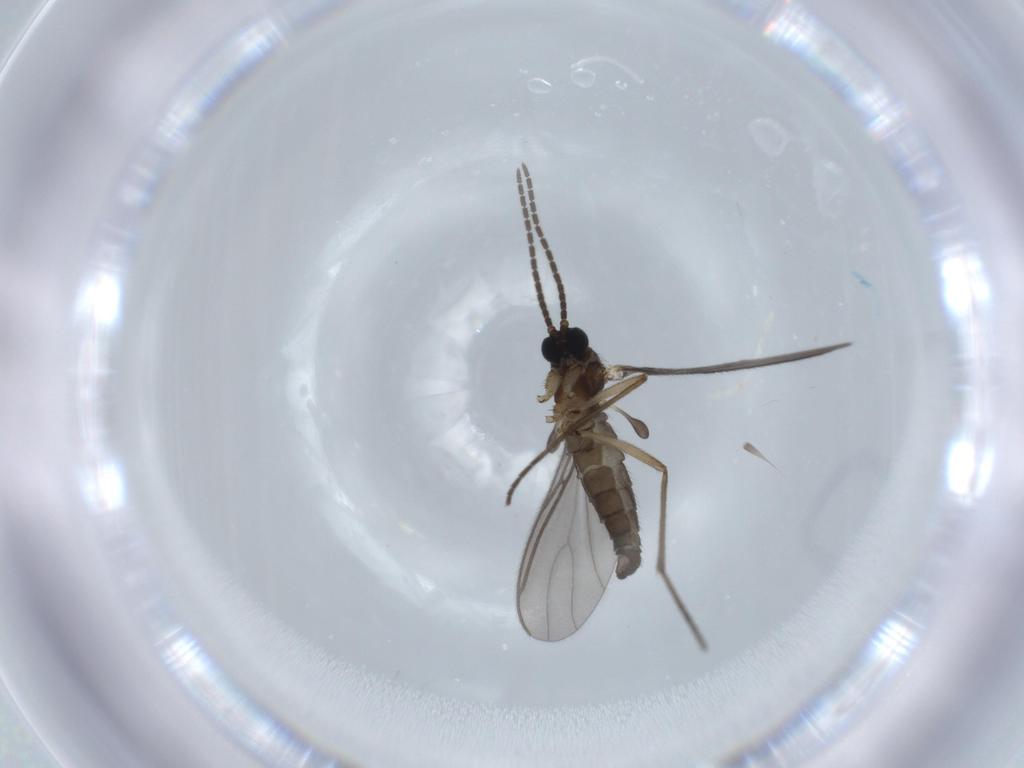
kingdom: Animalia
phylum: Arthropoda
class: Insecta
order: Diptera
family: Sciaridae
